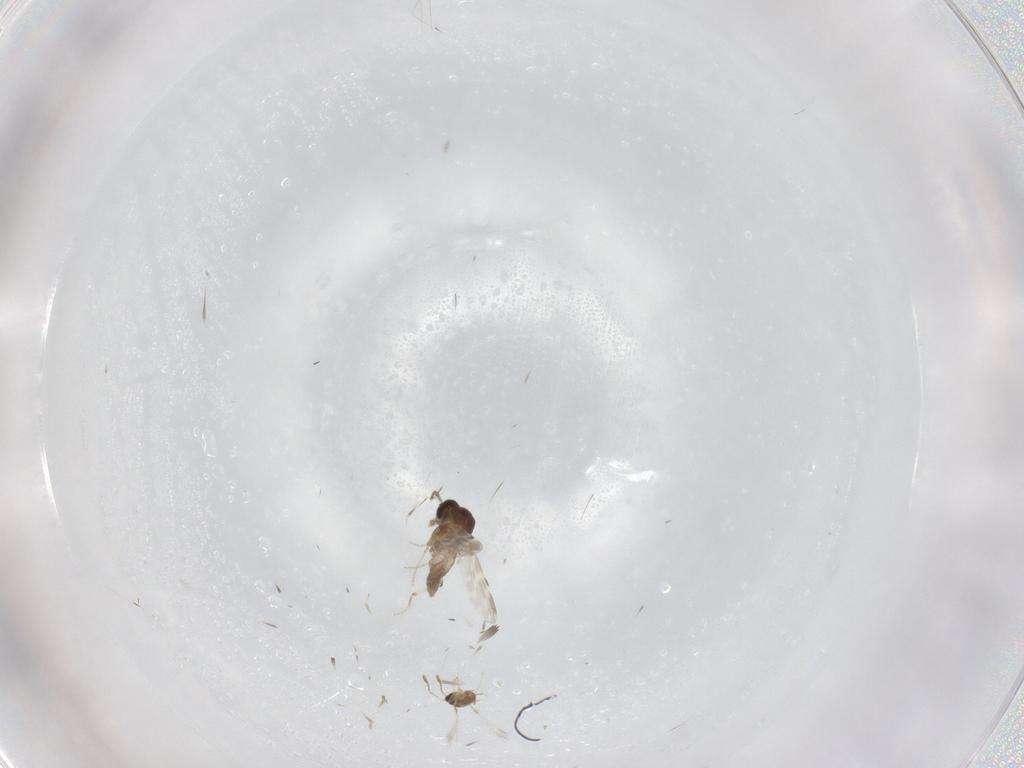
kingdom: Animalia
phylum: Arthropoda
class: Insecta
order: Diptera
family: Ceratopogonidae
